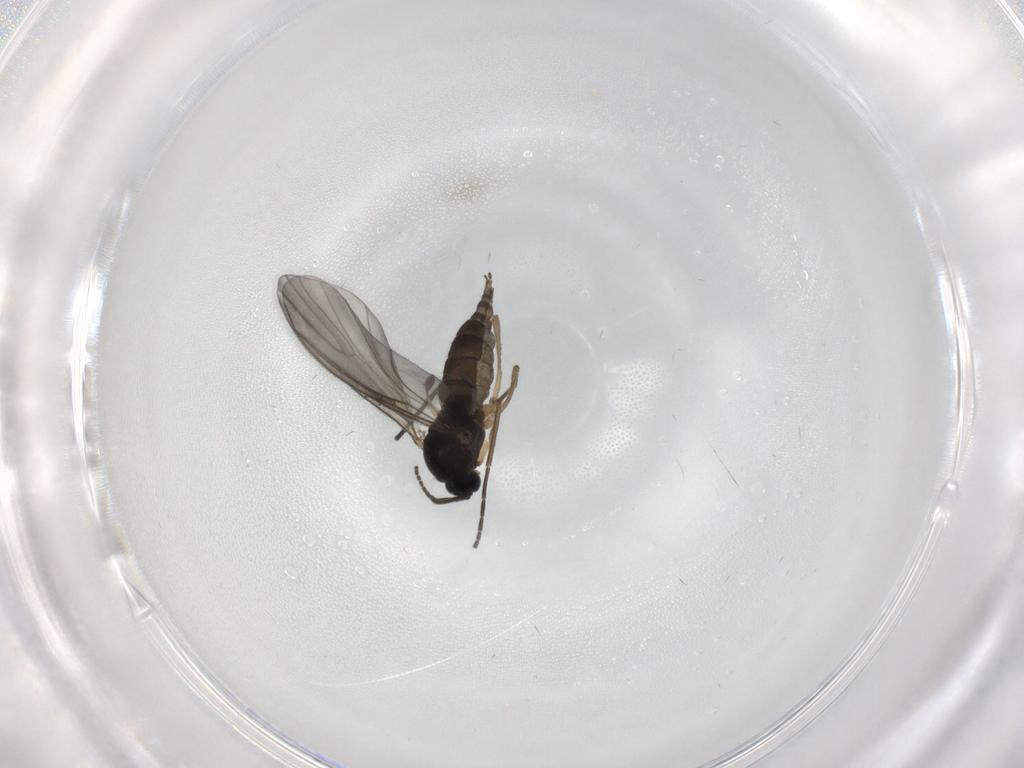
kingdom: Animalia
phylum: Arthropoda
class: Insecta
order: Diptera
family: Sciaridae
